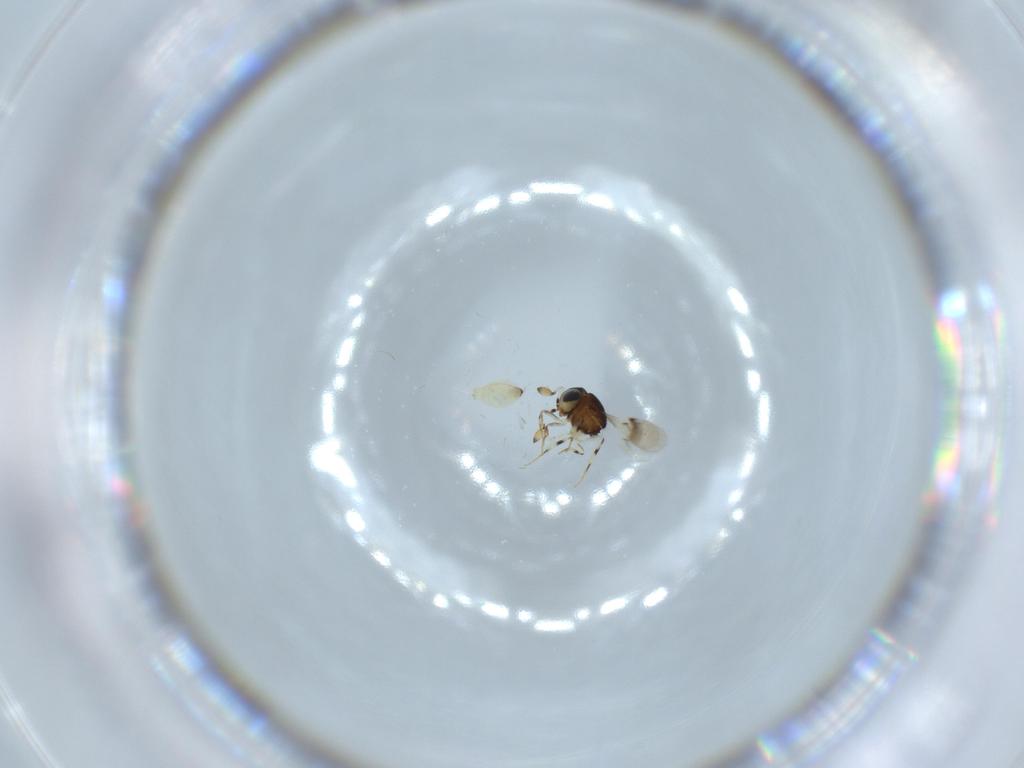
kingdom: Animalia
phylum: Arthropoda
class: Insecta
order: Hymenoptera
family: Scelionidae
